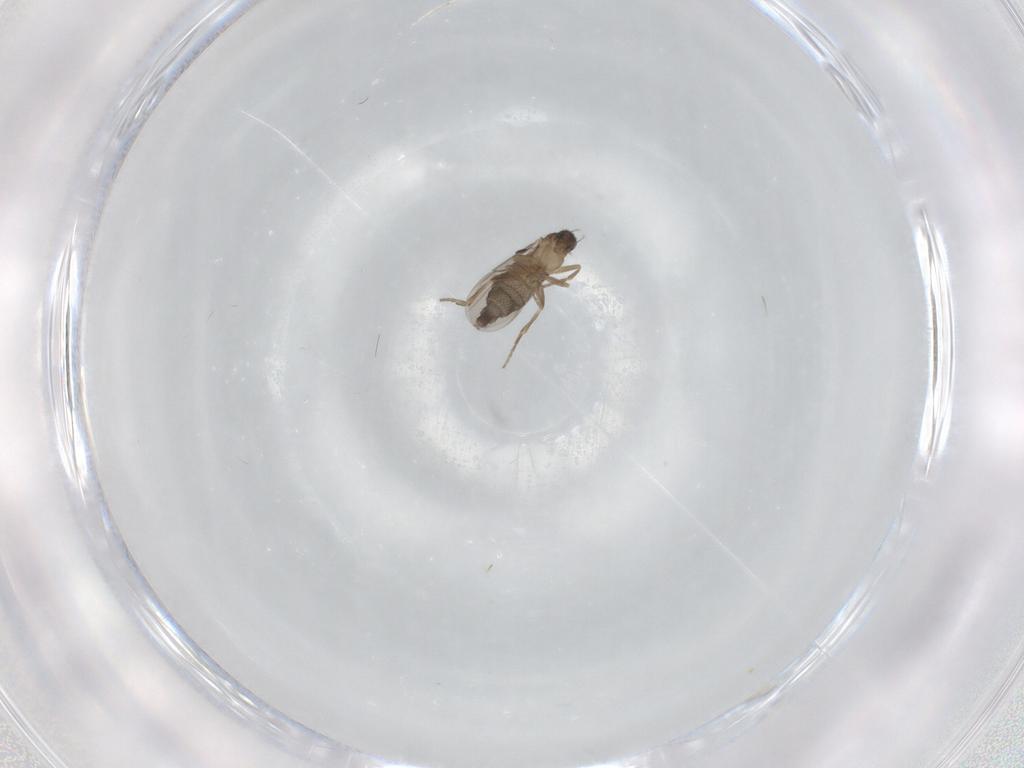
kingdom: Animalia
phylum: Arthropoda
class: Insecta
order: Diptera
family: Phoridae
